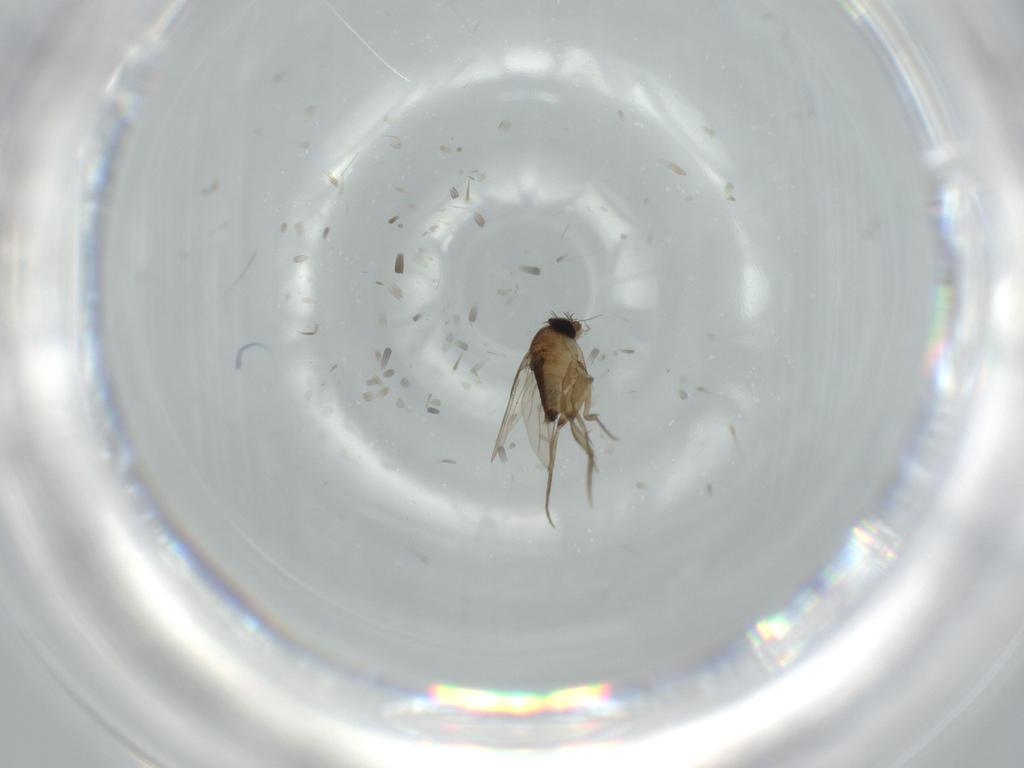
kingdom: Animalia
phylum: Arthropoda
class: Insecta
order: Diptera
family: Phoridae
